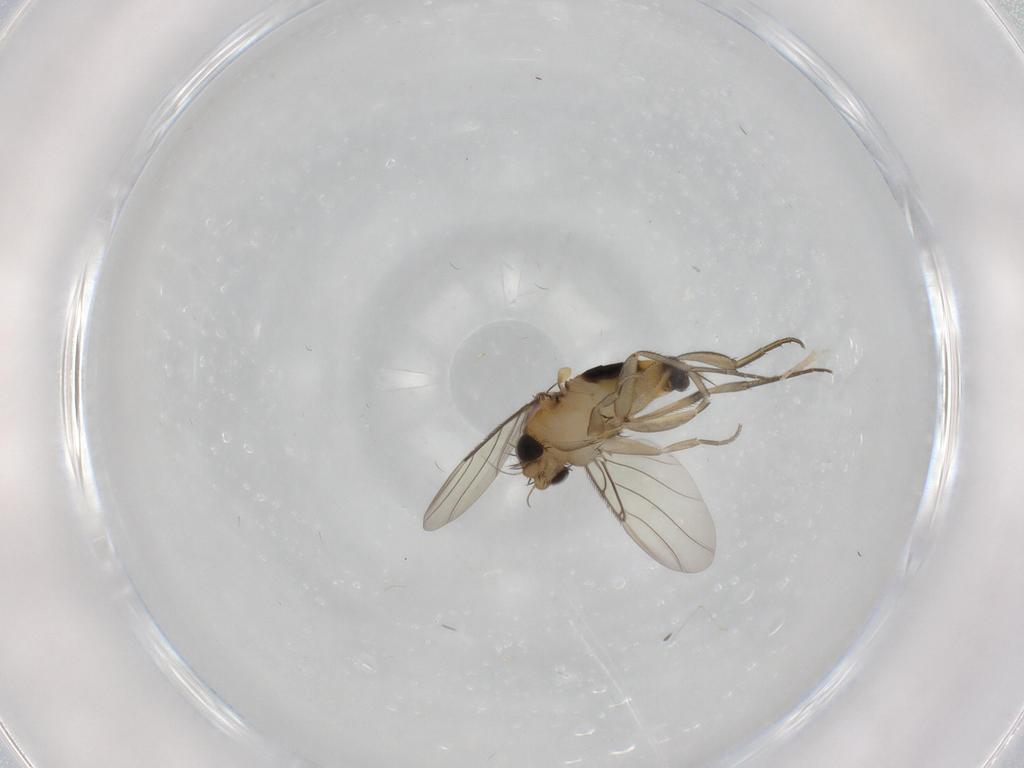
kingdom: Animalia
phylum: Arthropoda
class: Insecta
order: Diptera
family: Phoridae
